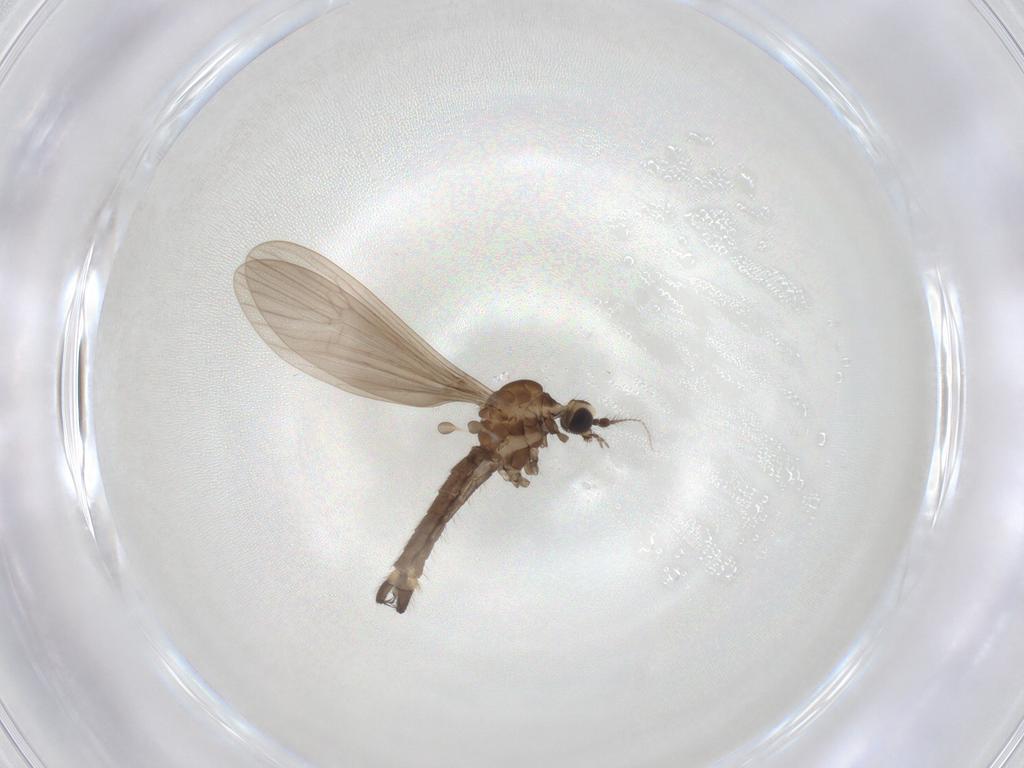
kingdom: Animalia
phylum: Arthropoda
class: Insecta
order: Diptera
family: Limoniidae
